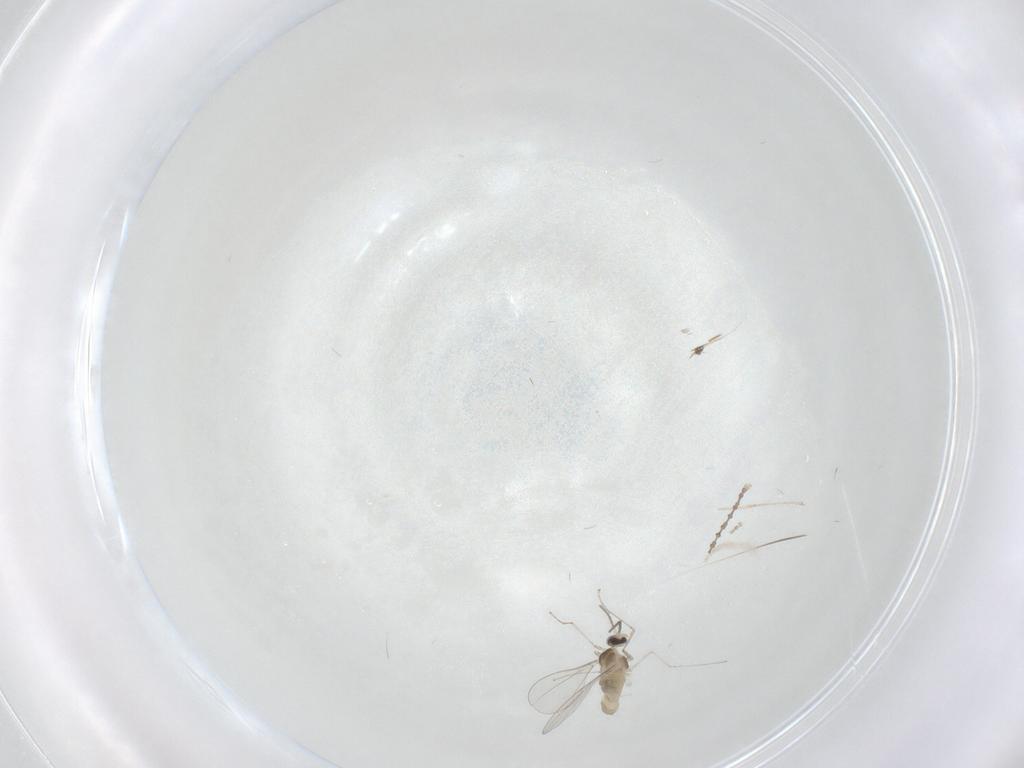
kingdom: Animalia
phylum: Arthropoda
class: Insecta
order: Diptera
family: Cecidomyiidae
